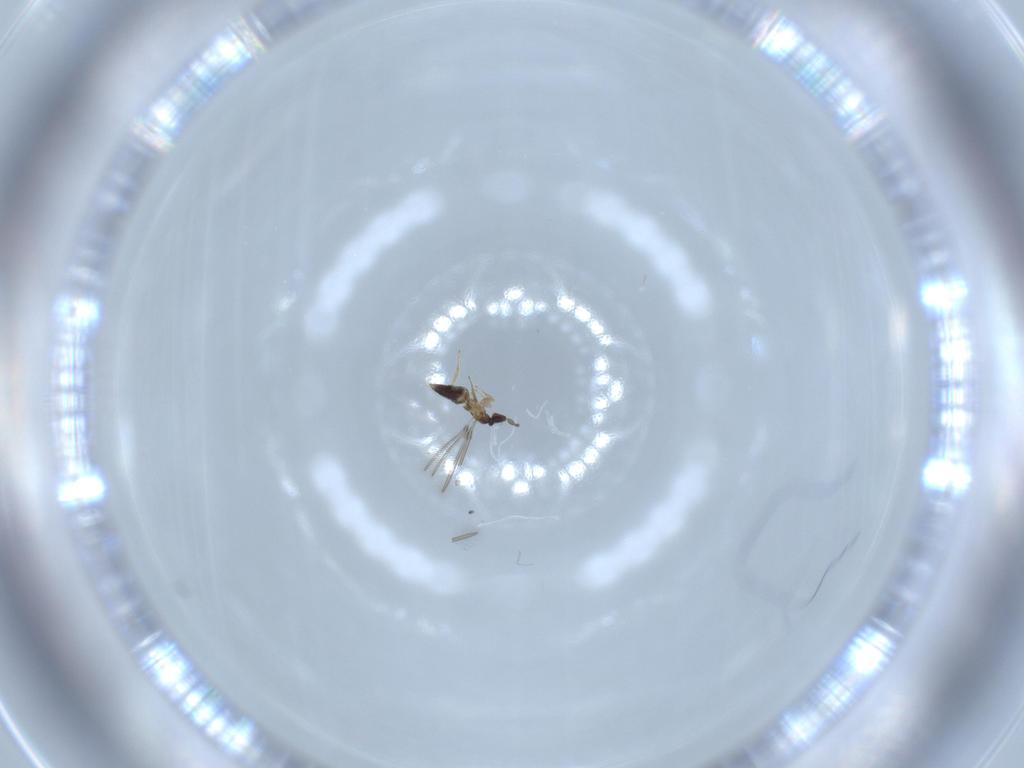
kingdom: Animalia
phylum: Arthropoda
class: Insecta
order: Hymenoptera
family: Mymaridae
